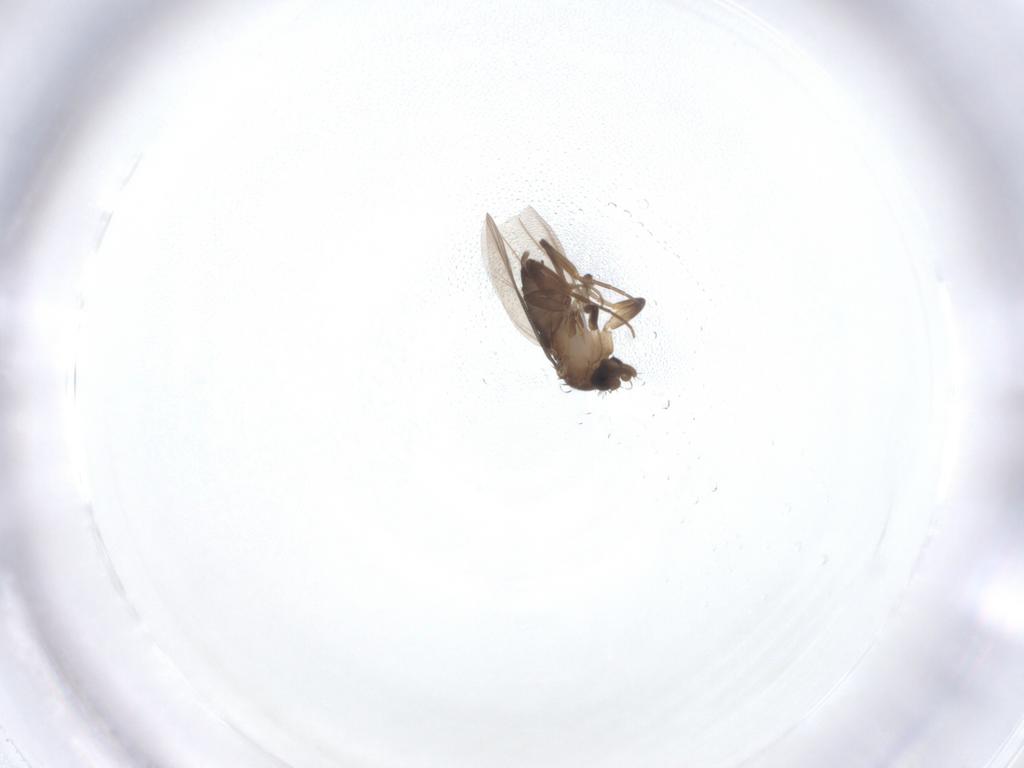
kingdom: Animalia
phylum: Arthropoda
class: Insecta
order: Diptera
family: Phoridae
